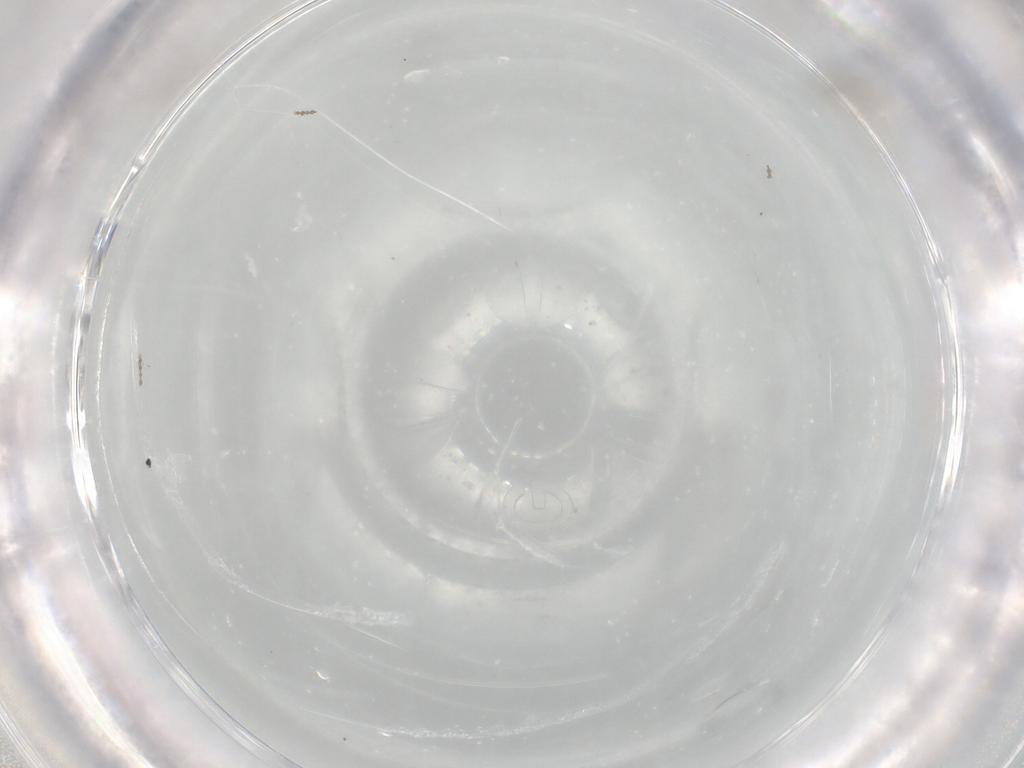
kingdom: Animalia
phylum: Arthropoda
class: Insecta
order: Diptera
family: Cecidomyiidae
